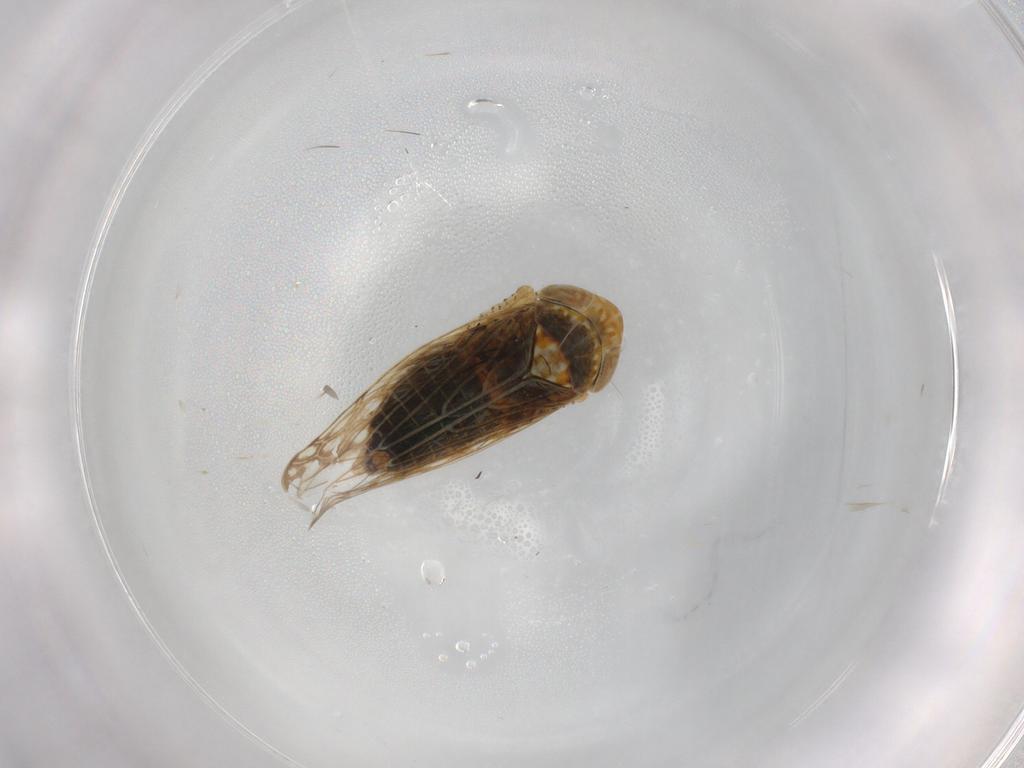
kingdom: Animalia
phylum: Arthropoda
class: Insecta
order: Hemiptera
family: Cicadellidae
